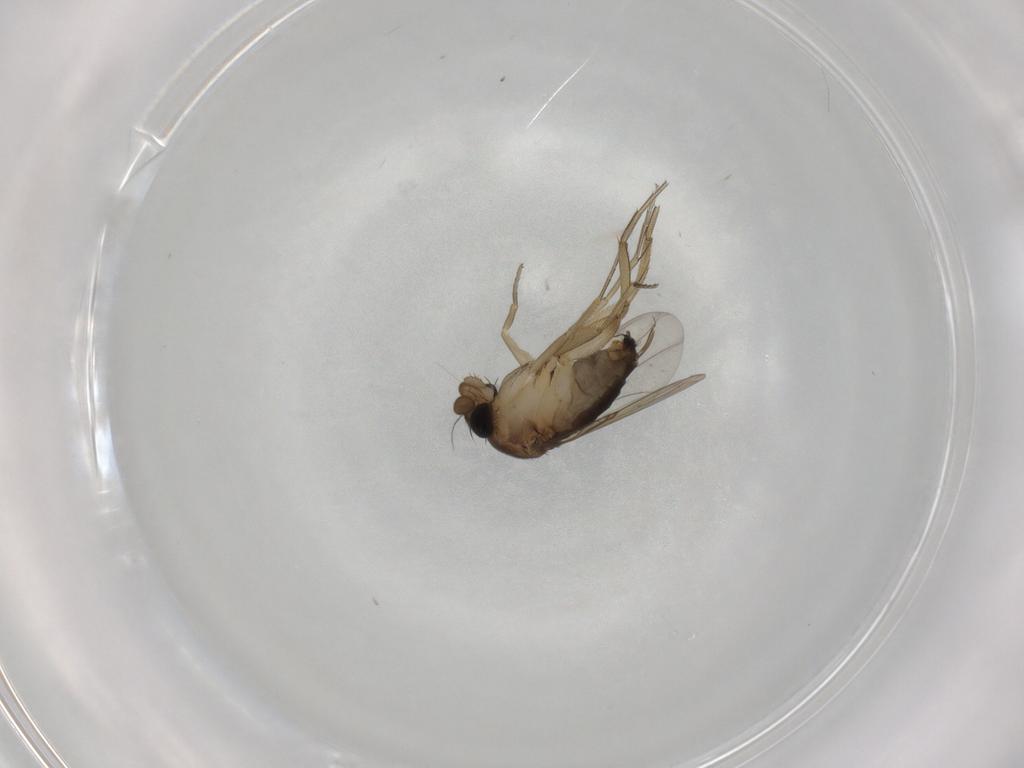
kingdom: Animalia
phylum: Arthropoda
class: Insecta
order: Diptera
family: Phoridae
